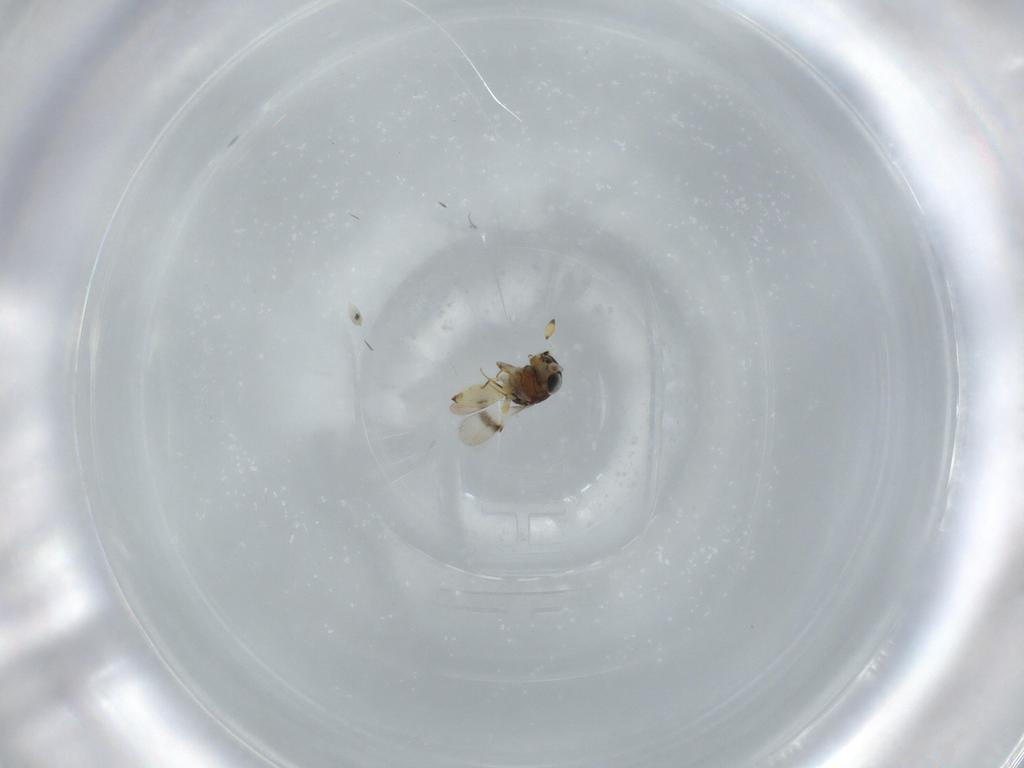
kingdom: Animalia
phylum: Arthropoda
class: Insecta
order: Hymenoptera
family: Scelionidae
